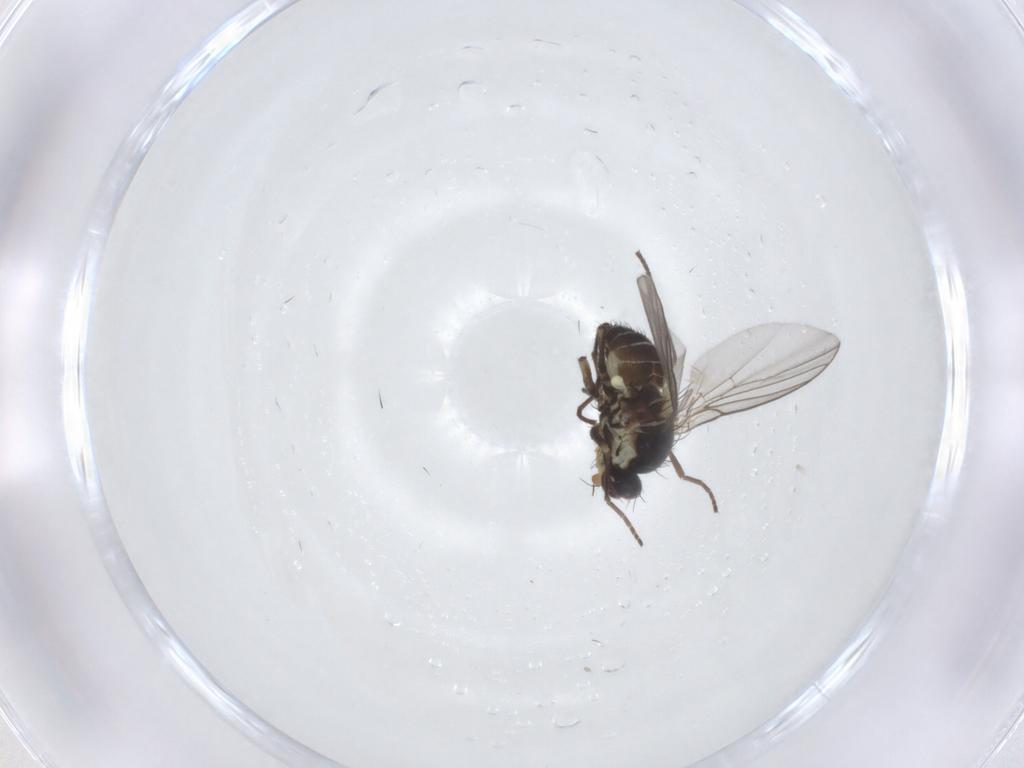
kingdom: Animalia
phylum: Arthropoda
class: Insecta
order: Diptera
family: Agromyzidae
